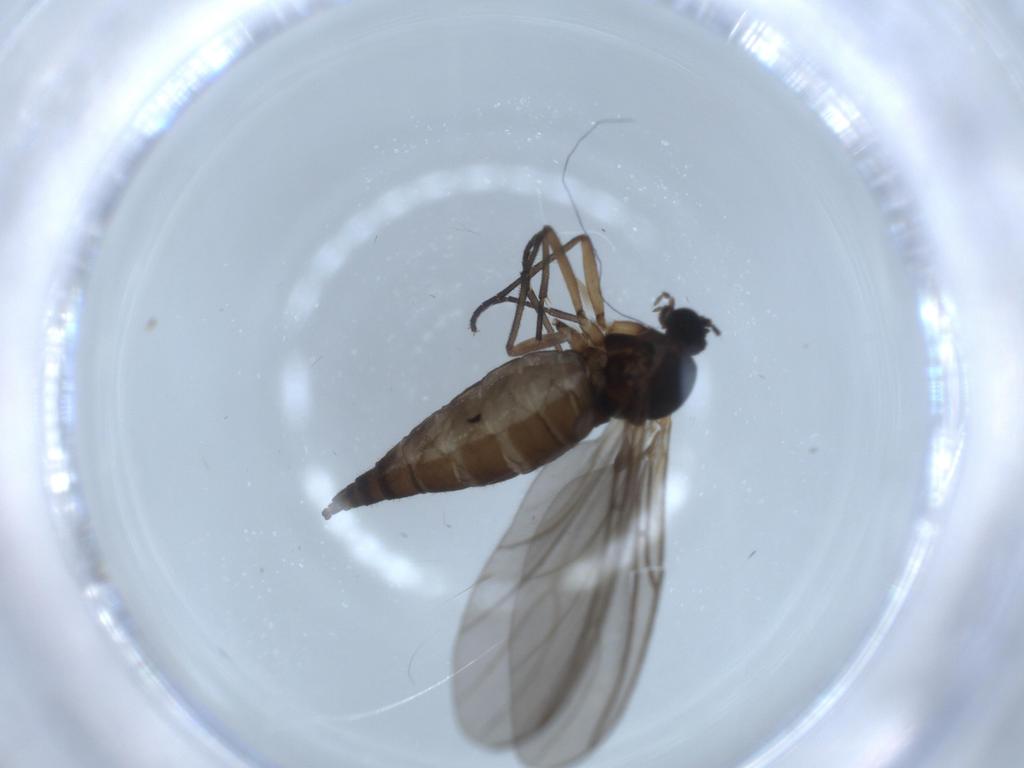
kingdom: Animalia
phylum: Arthropoda
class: Insecta
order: Diptera
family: Sciaridae
